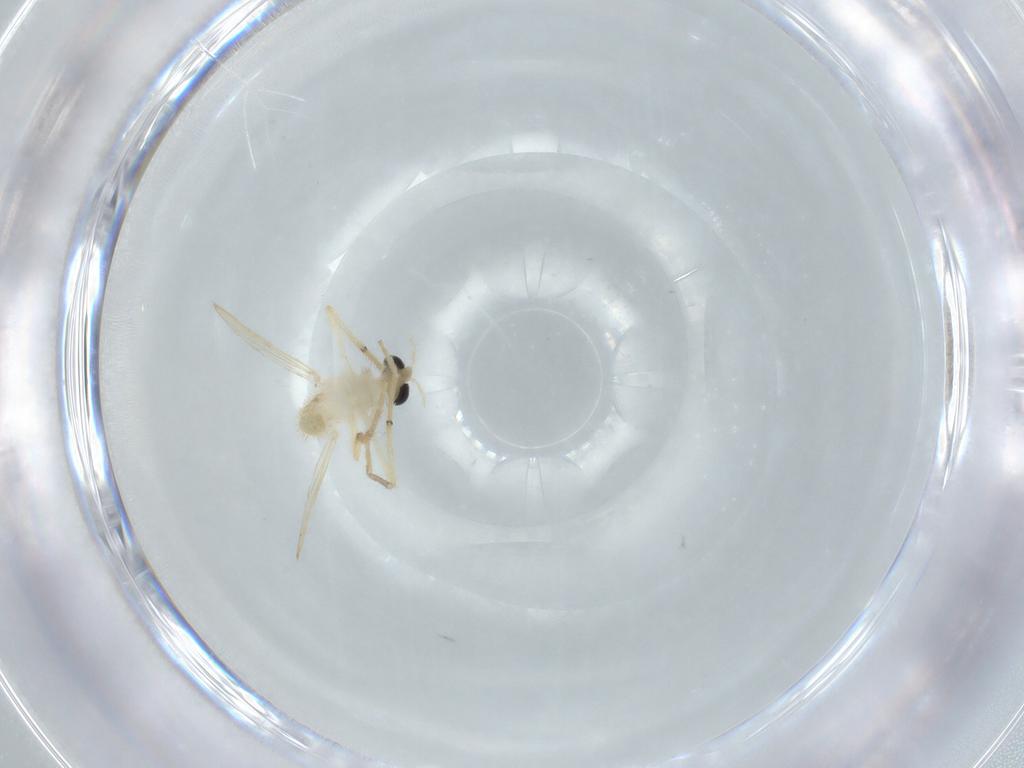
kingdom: Animalia
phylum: Arthropoda
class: Insecta
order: Diptera
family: Chironomidae
